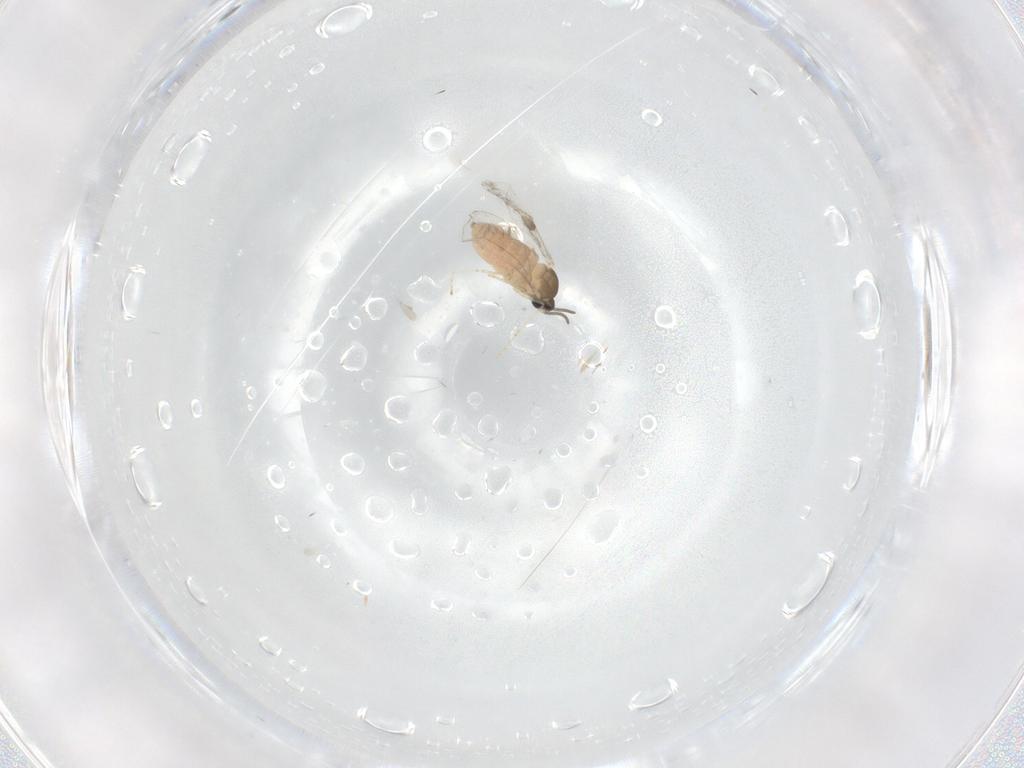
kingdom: Animalia
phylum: Arthropoda
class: Insecta
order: Diptera
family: Cecidomyiidae
